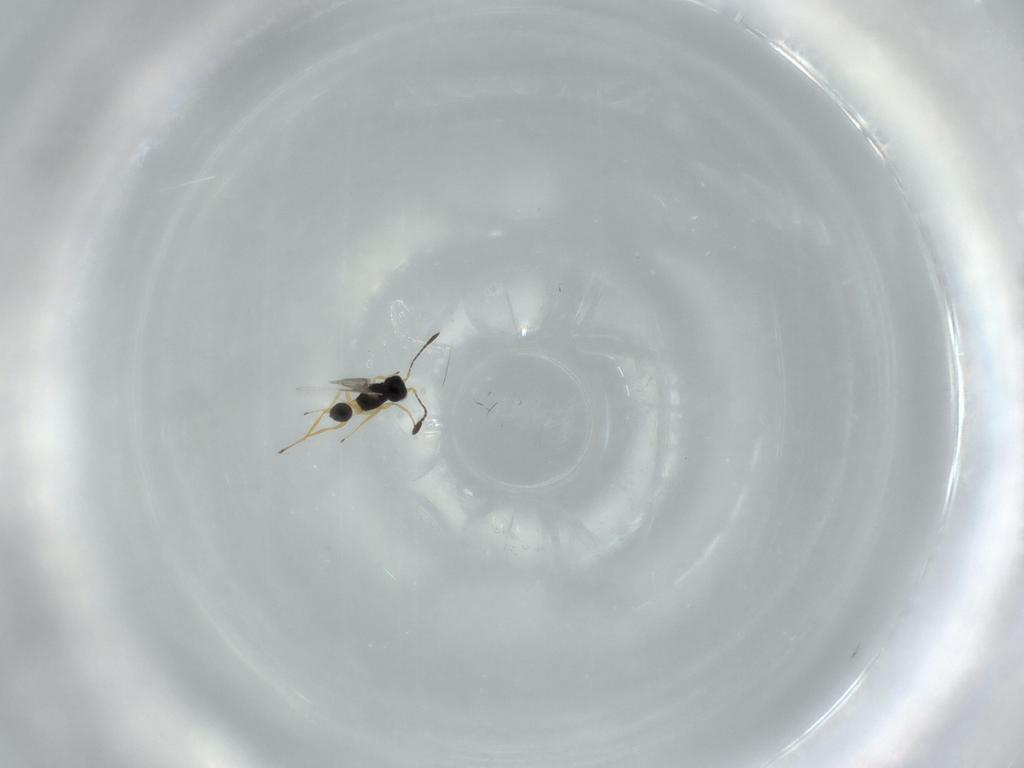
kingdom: Animalia
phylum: Arthropoda
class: Insecta
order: Hymenoptera
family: Mymaridae
